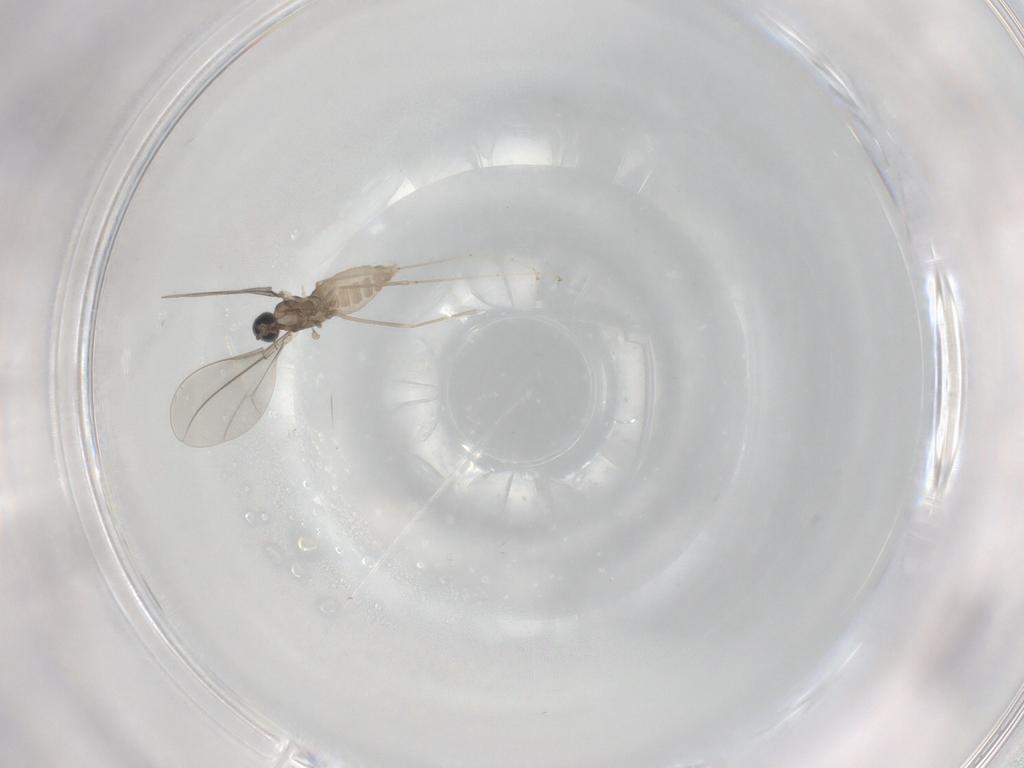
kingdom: Animalia
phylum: Arthropoda
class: Insecta
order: Diptera
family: Cecidomyiidae
